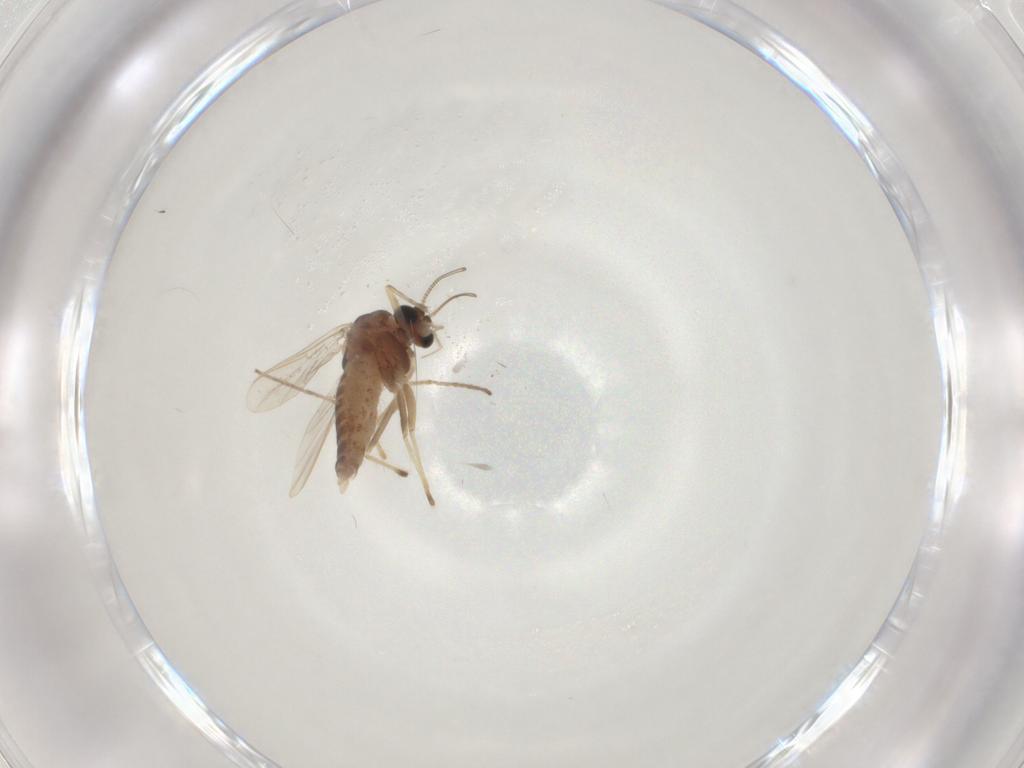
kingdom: Animalia
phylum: Arthropoda
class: Insecta
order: Diptera
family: Chironomidae
